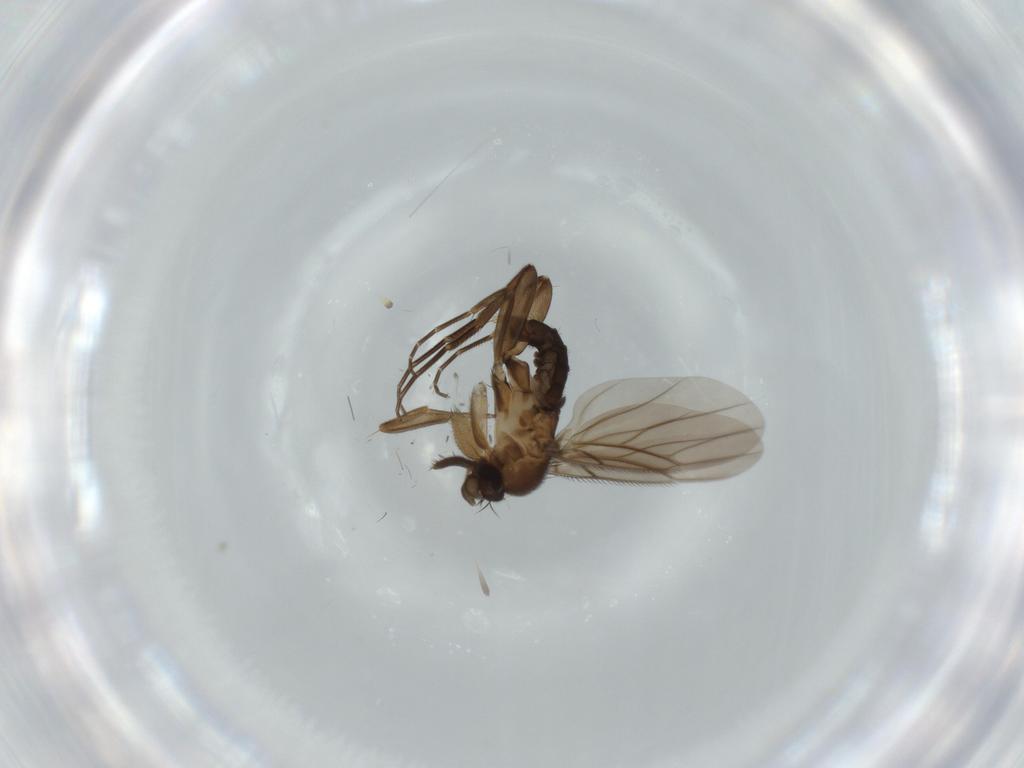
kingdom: Animalia
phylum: Arthropoda
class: Insecta
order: Diptera
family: Phoridae
